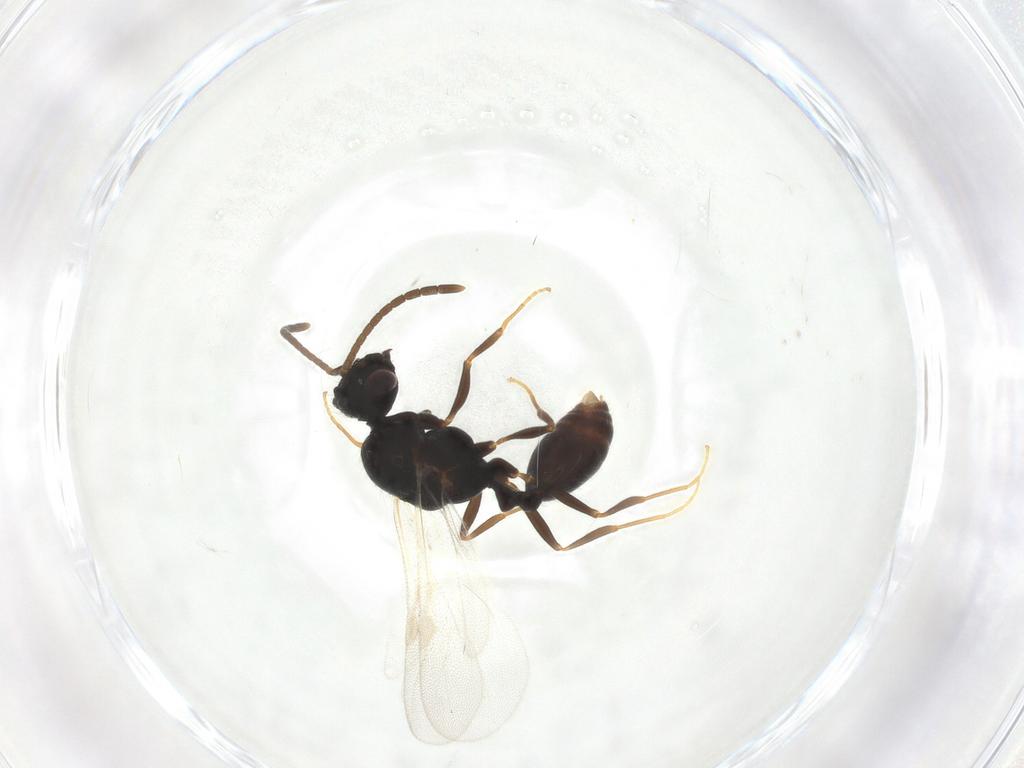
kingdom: Animalia
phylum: Arthropoda
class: Insecta
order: Hymenoptera
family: Formicidae
